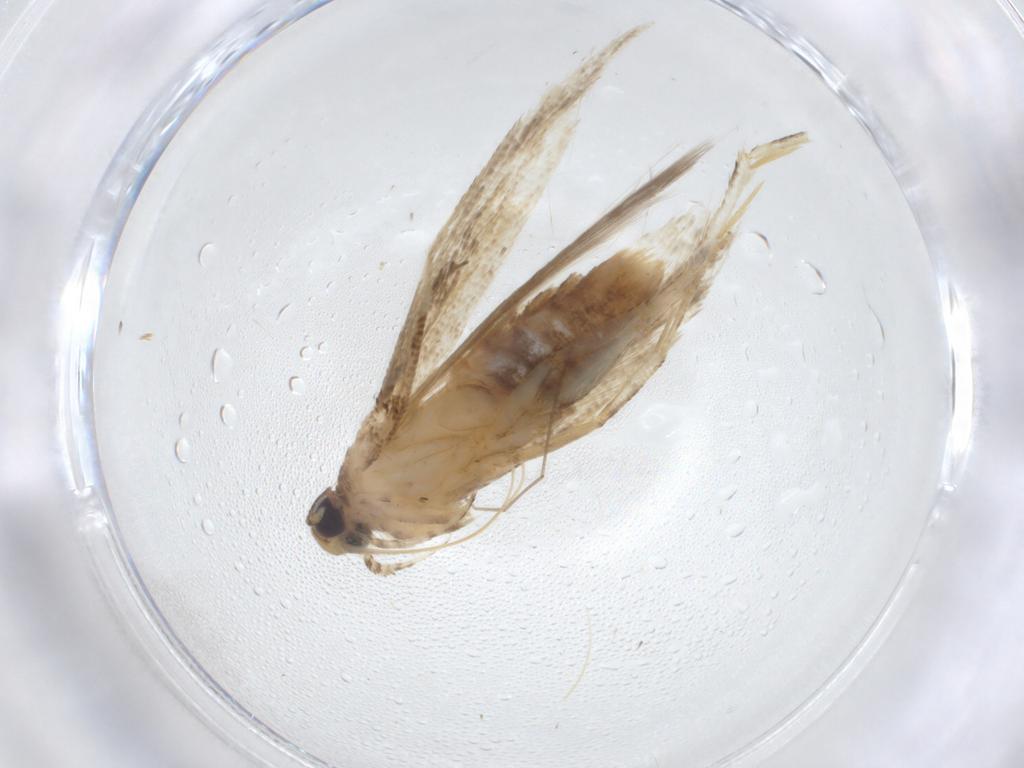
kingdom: Animalia
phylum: Arthropoda
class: Insecta
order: Lepidoptera
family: Gelechiidae
